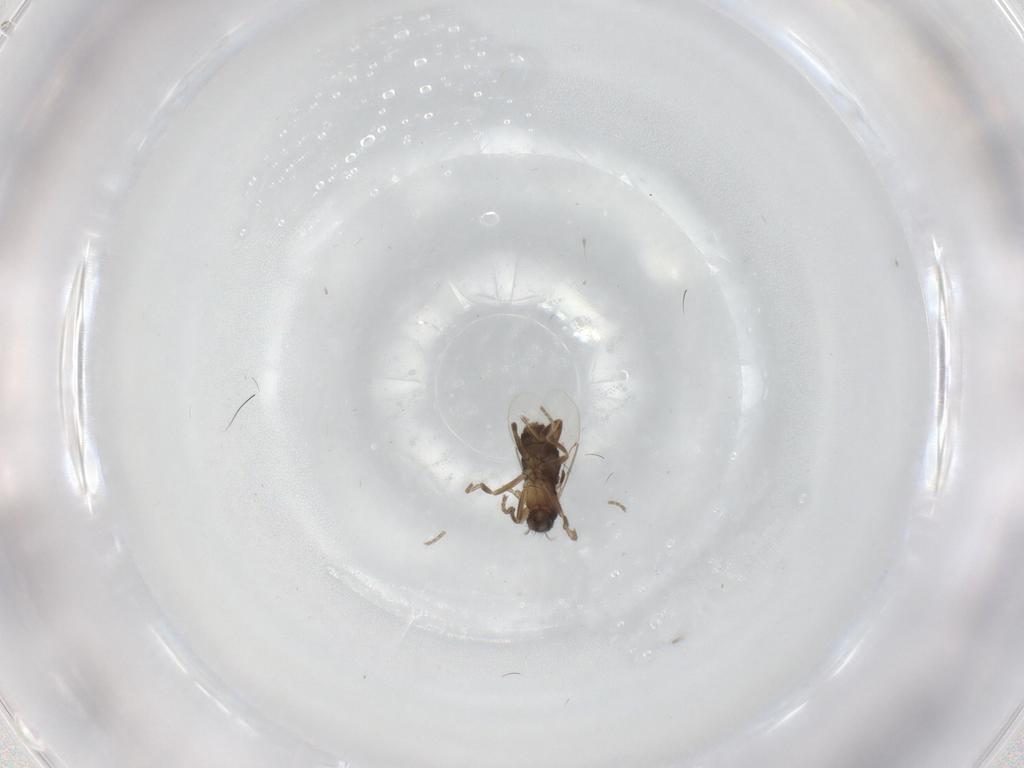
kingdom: Animalia
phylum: Arthropoda
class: Insecta
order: Diptera
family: Phoridae
